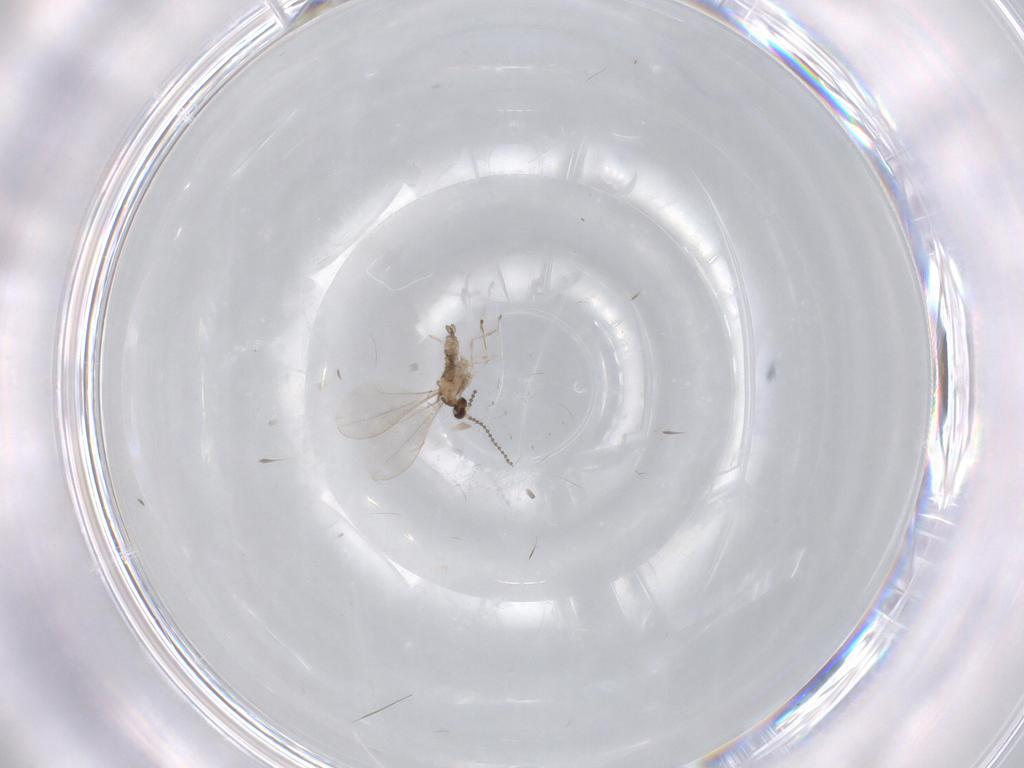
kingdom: Animalia
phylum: Arthropoda
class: Insecta
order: Diptera
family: Cecidomyiidae
